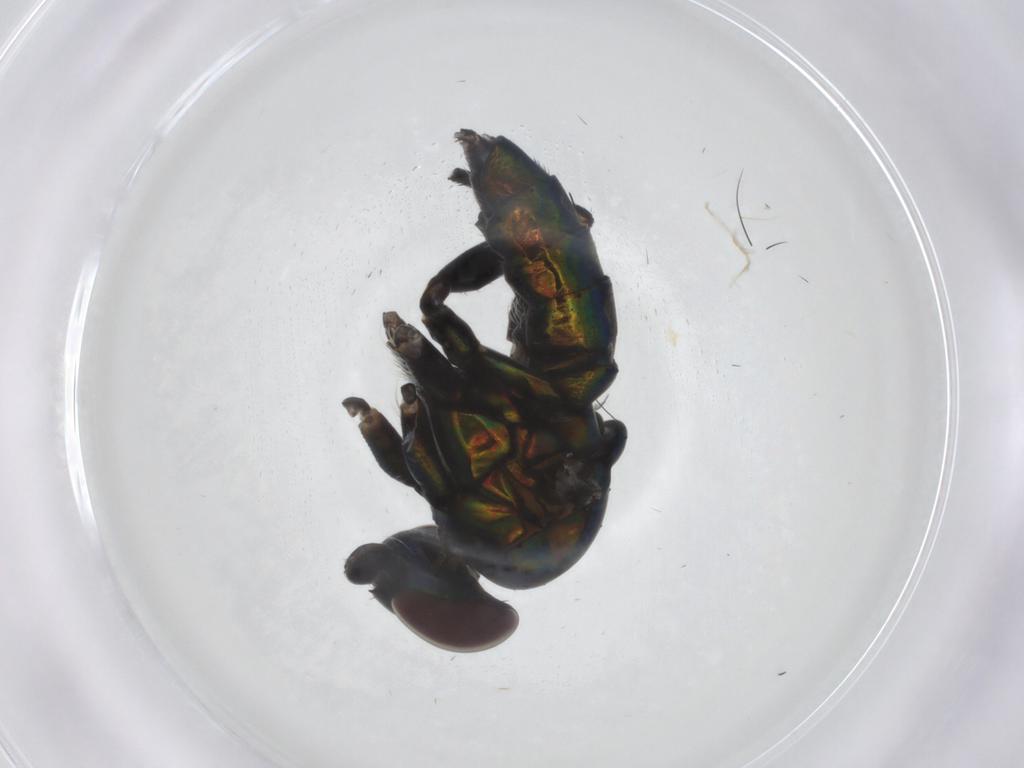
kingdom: Animalia
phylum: Arthropoda
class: Insecta
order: Diptera
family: Dolichopodidae
